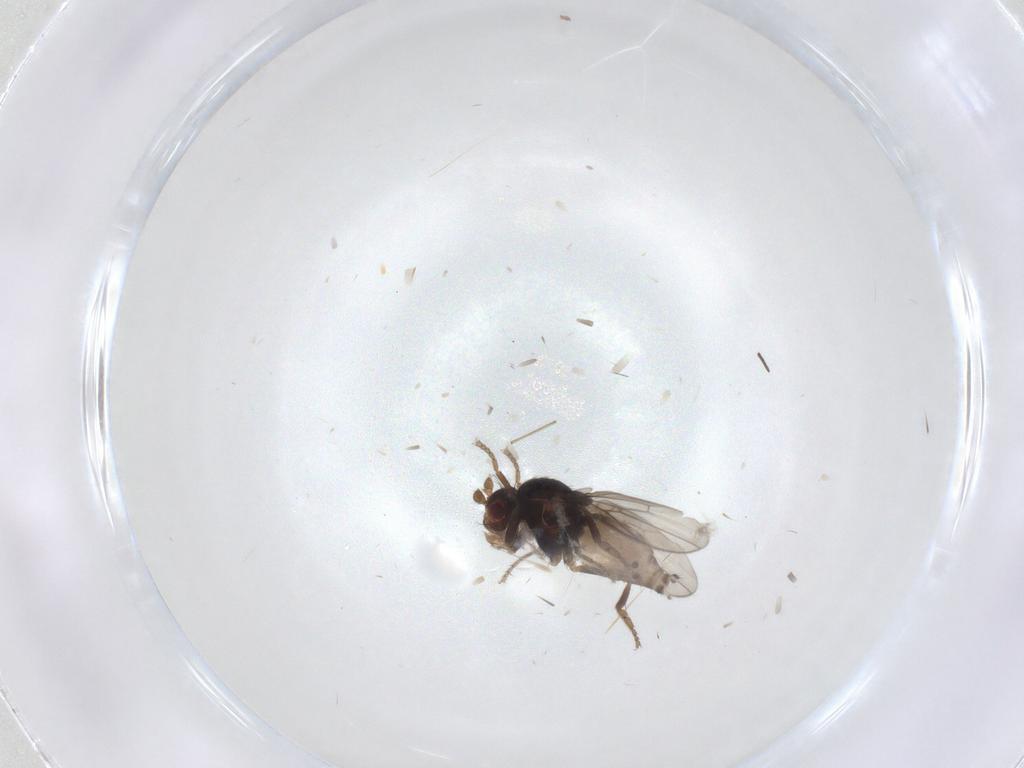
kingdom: Animalia
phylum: Arthropoda
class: Insecta
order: Diptera
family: Sphaeroceridae
